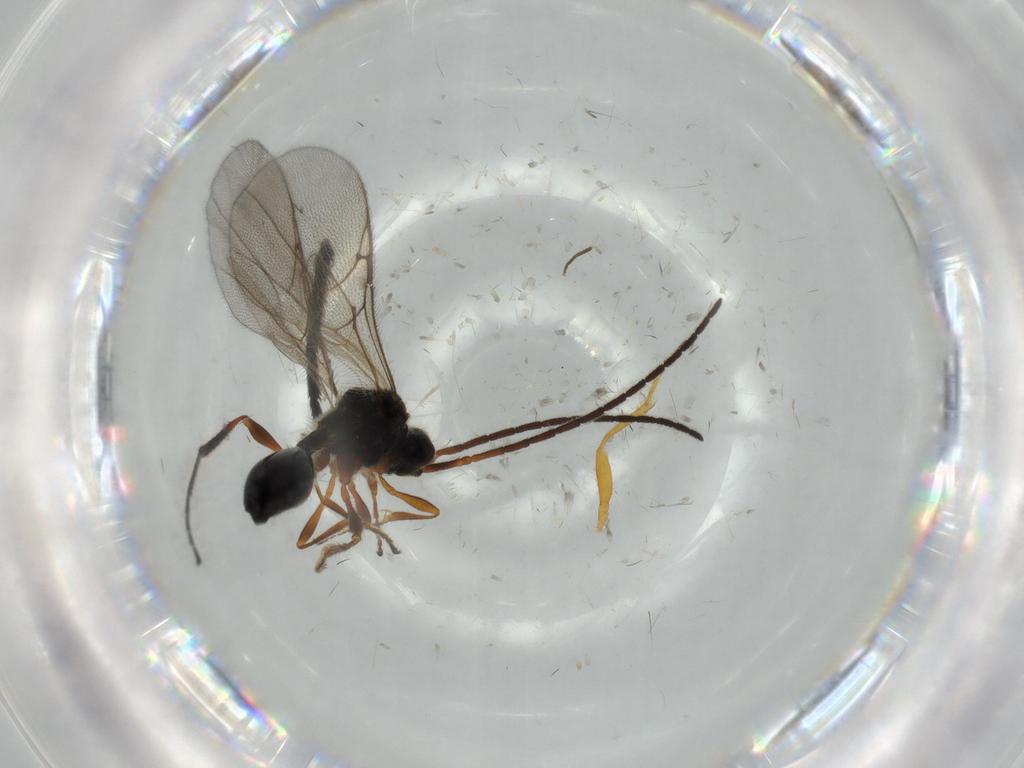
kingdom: Animalia
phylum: Arthropoda
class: Insecta
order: Hymenoptera
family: Ichneumonidae
